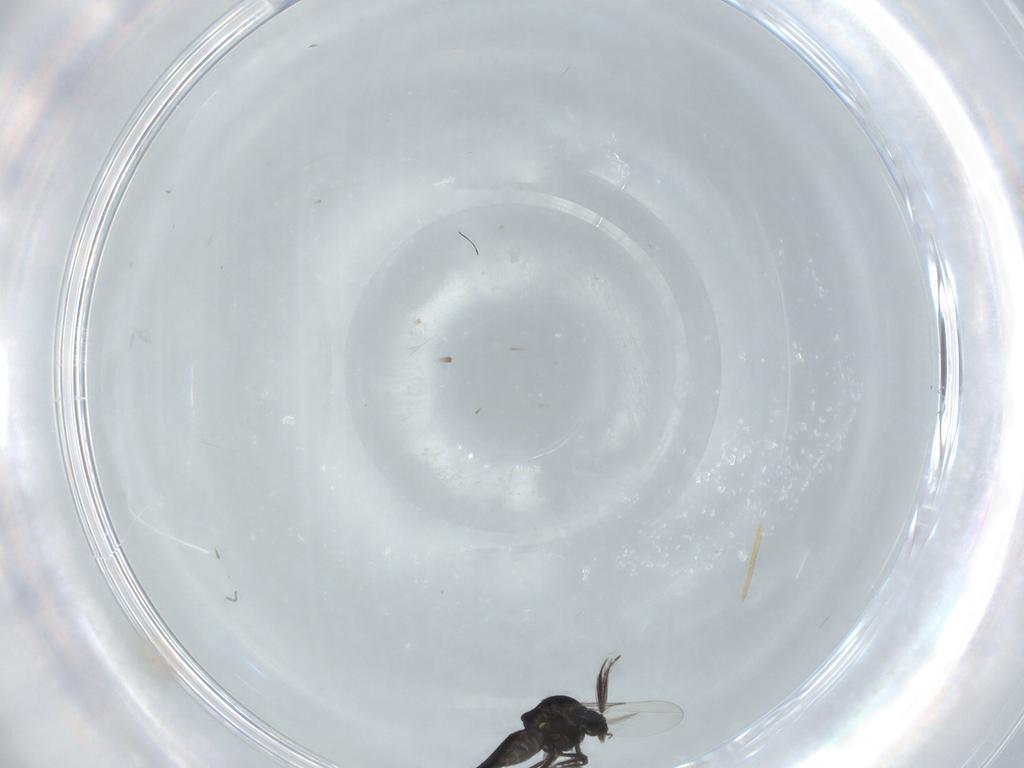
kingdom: Animalia
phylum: Arthropoda
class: Insecta
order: Diptera
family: Ceratopogonidae
